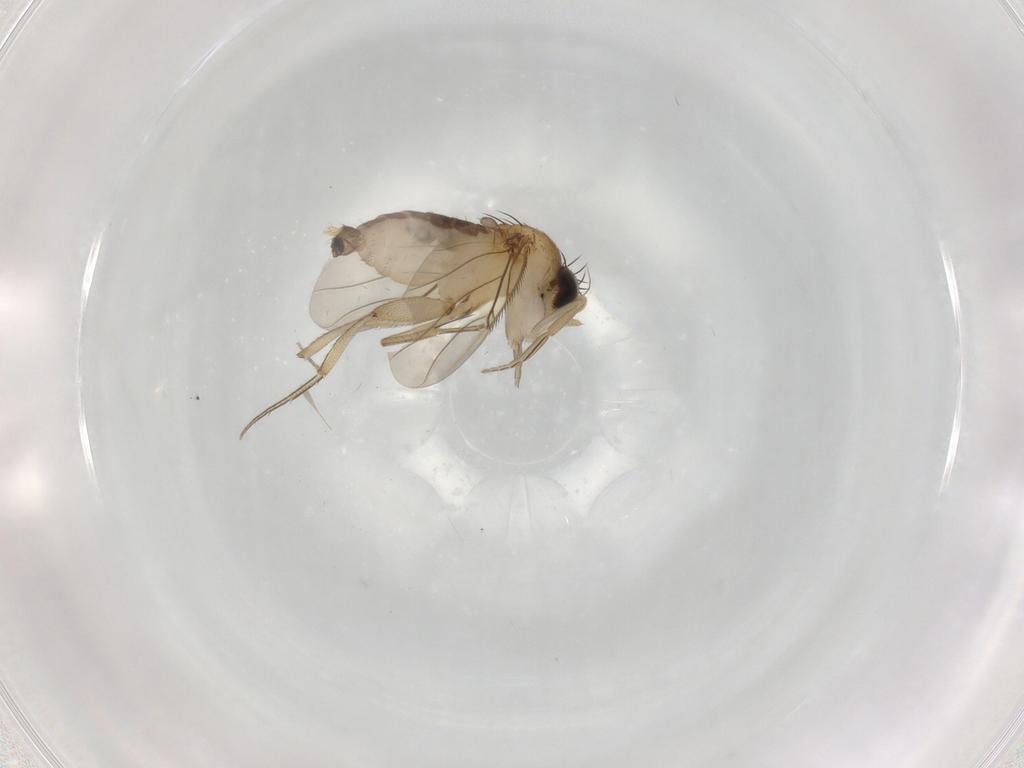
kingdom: Animalia
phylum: Arthropoda
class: Insecta
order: Diptera
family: Phoridae
